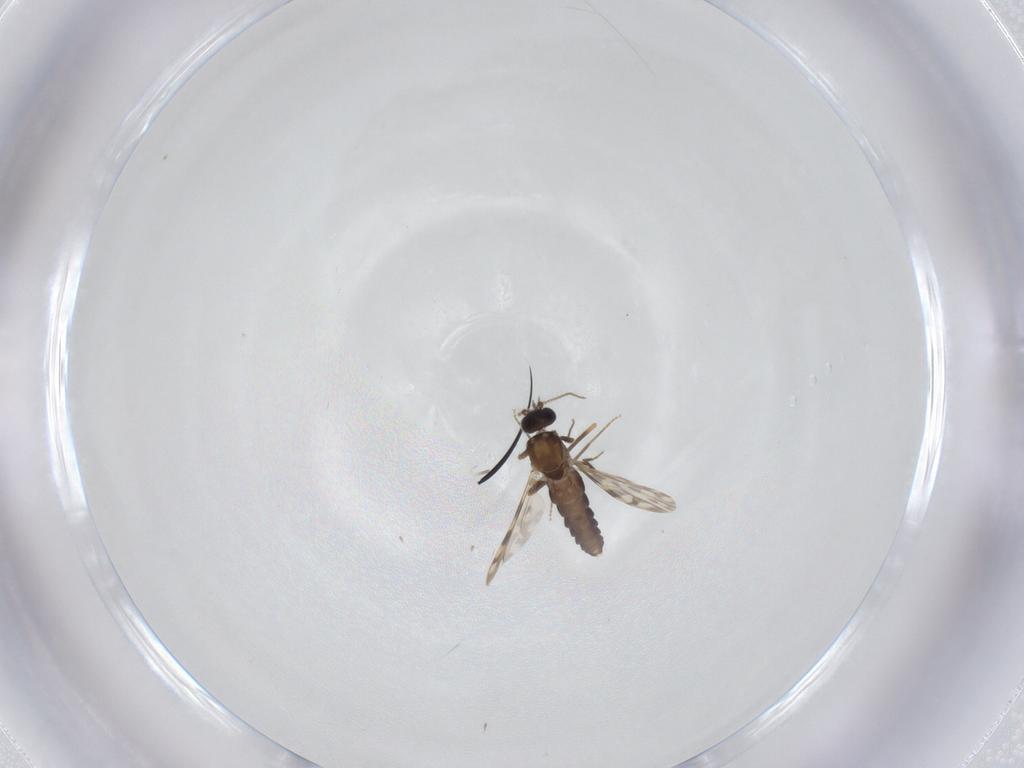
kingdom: Animalia
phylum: Arthropoda
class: Insecta
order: Diptera
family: Ceratopogonidae
